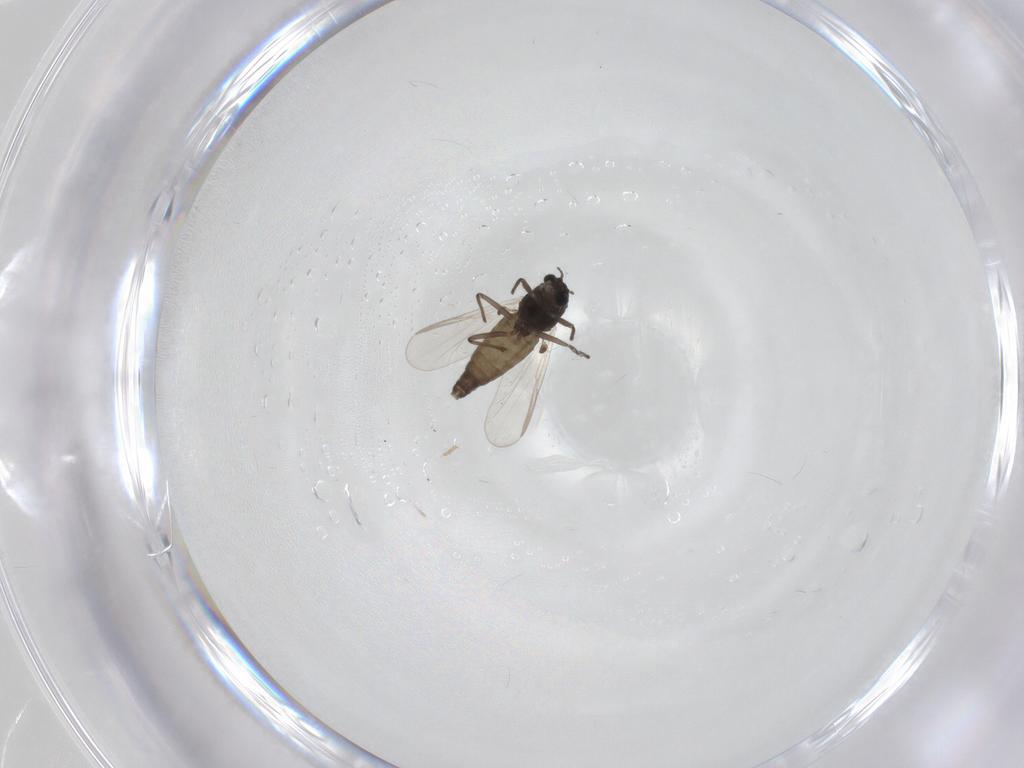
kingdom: Animalia
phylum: Arthropoda
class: Insecta
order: Diptera
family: Chironomidae
